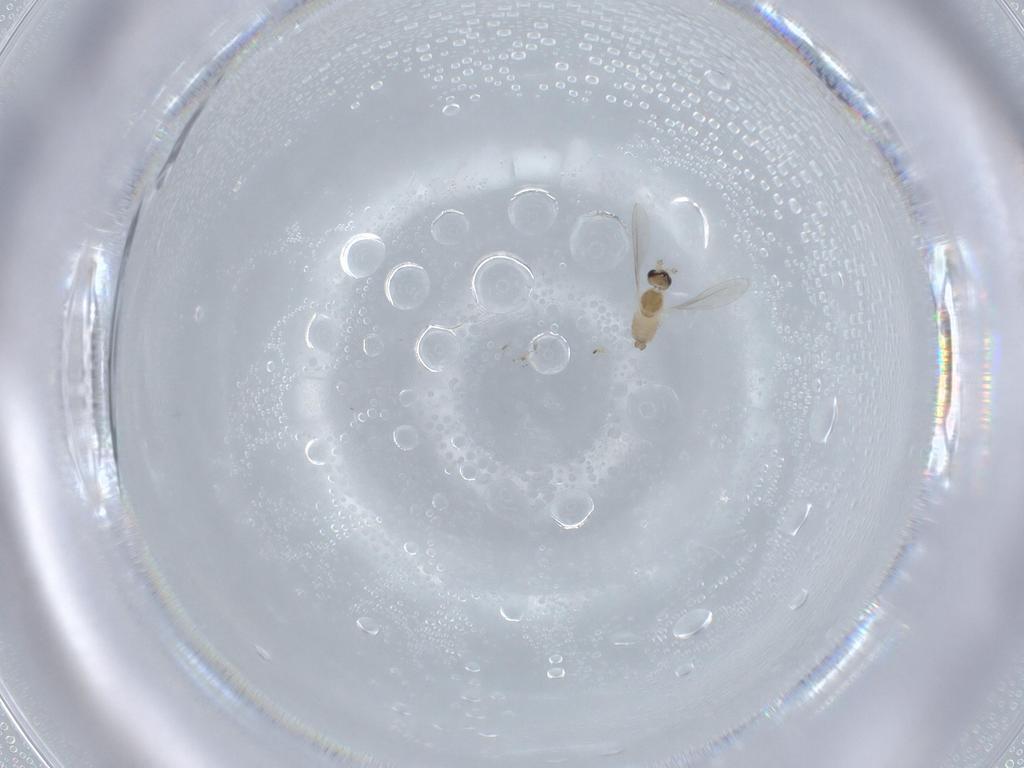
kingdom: Animalia
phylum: Arthropoda
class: Insecta
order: Diptera
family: Cecidomyiidae
